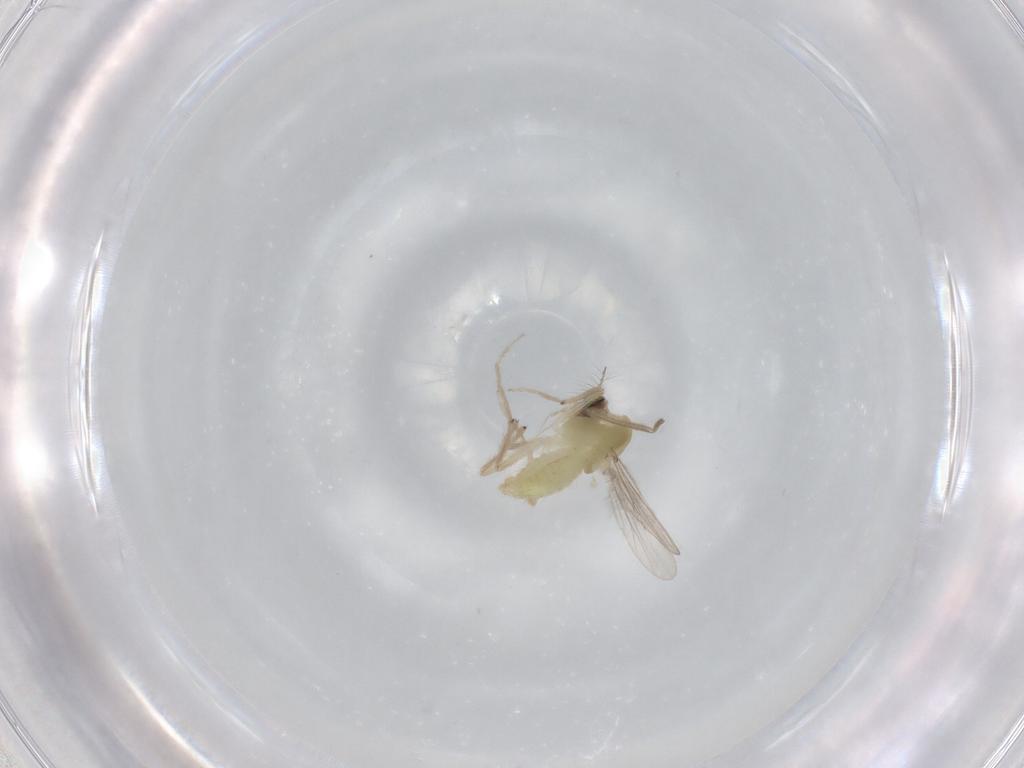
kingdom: Animalia
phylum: Arthropoda
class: Insecta
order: Diptera
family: Chironomidae
